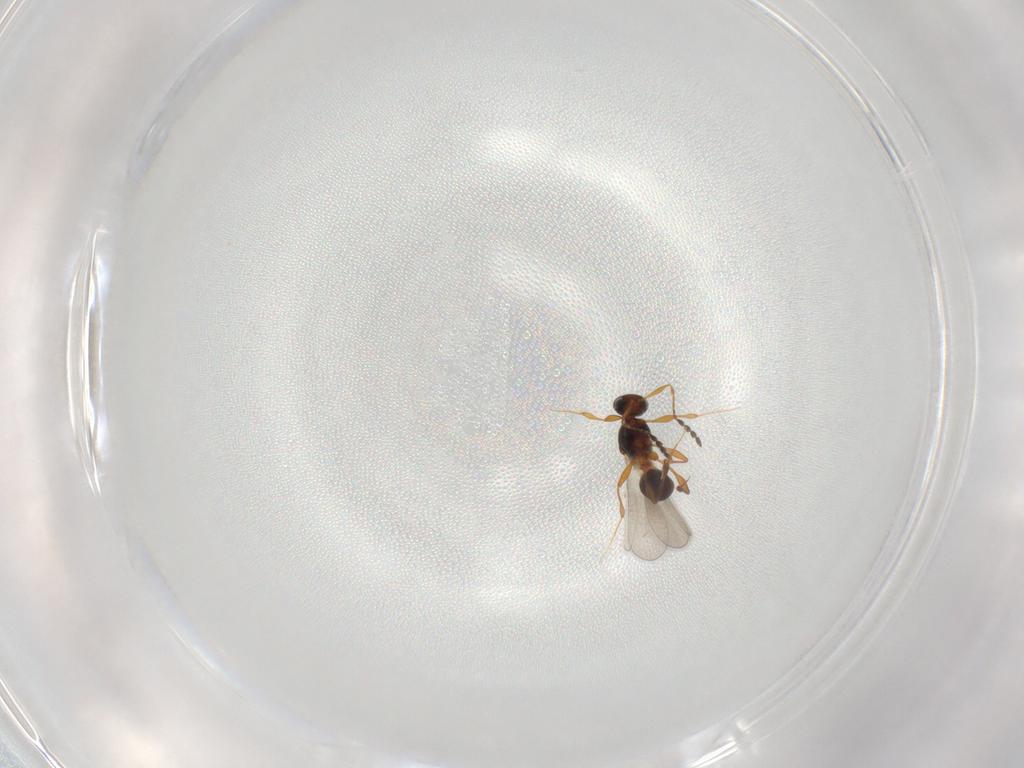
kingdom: Animalia
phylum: Arthropoda
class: Insecta
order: Hymenoptera
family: Platygastridae
